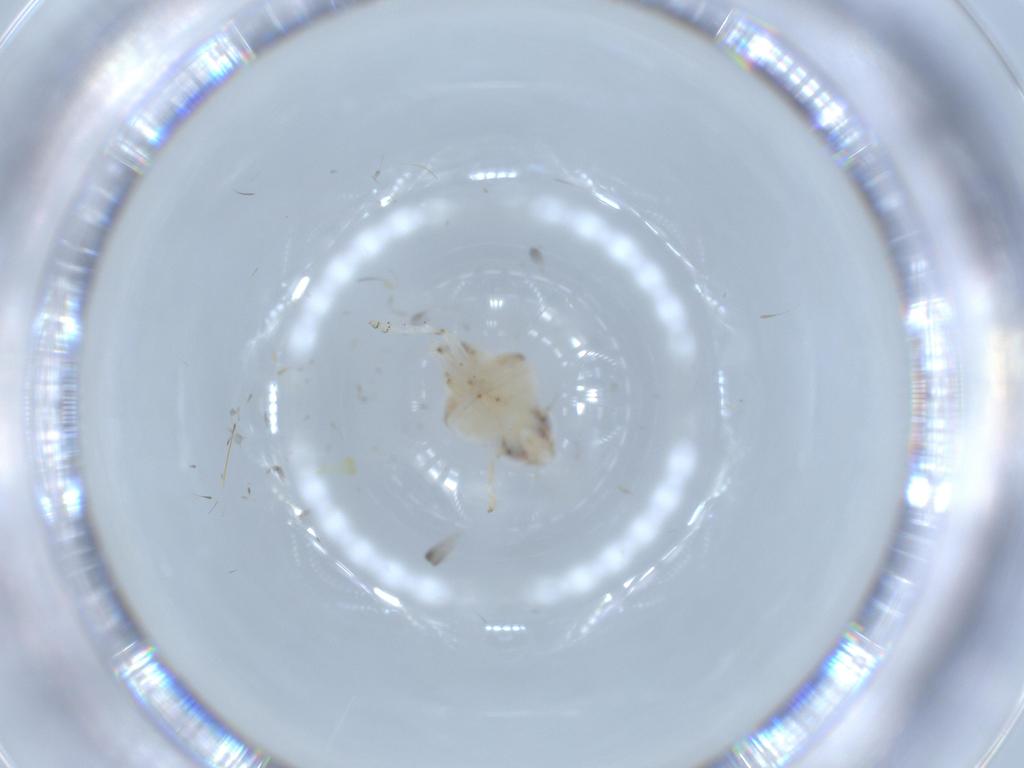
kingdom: Animalia
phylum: Arthropoda
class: Insecta
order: Hemiptera
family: Nogodinidae
